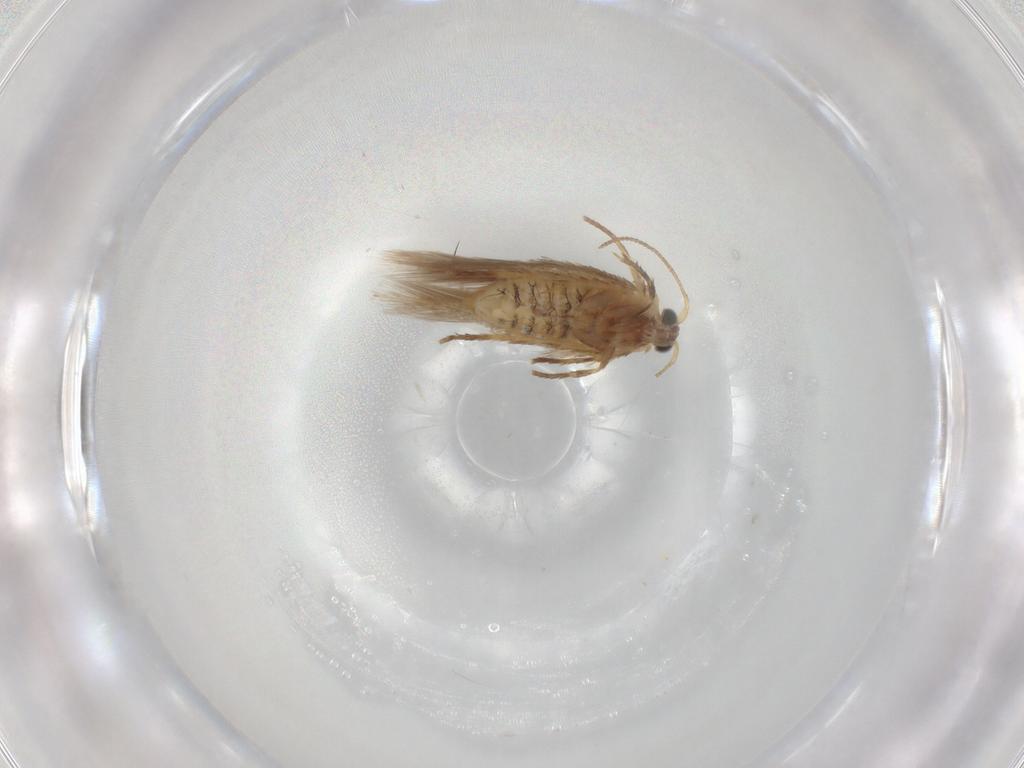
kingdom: Animalia
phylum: Arthropoda
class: Insecta
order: Lepidoptera
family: Nepticulidae
